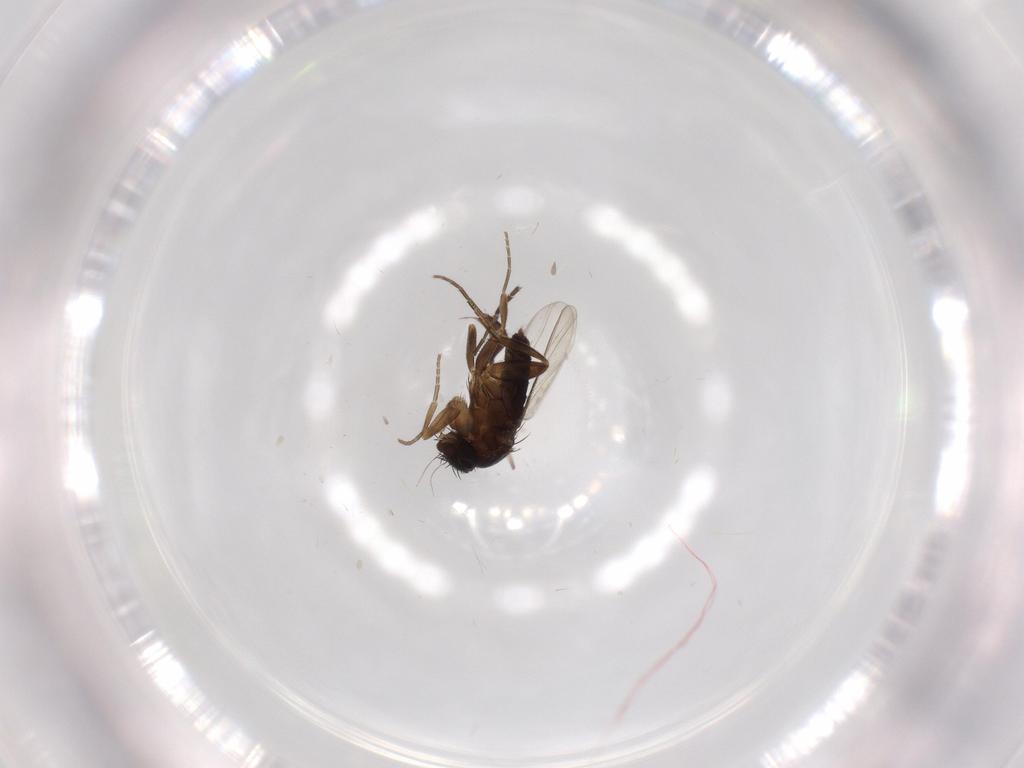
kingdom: Animalia
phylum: Arthropoda
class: Insecta
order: Diptera
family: Phoridae
